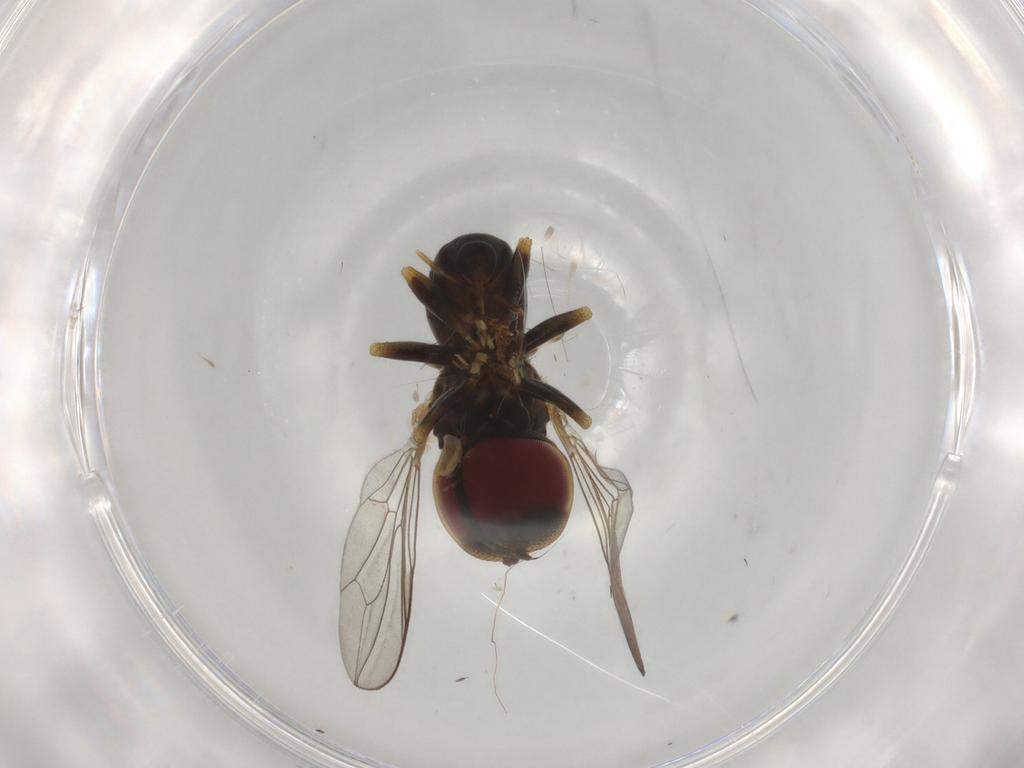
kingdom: Animalia
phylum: Arthropoda
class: Insecta
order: Diptera
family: Pipunculidae
